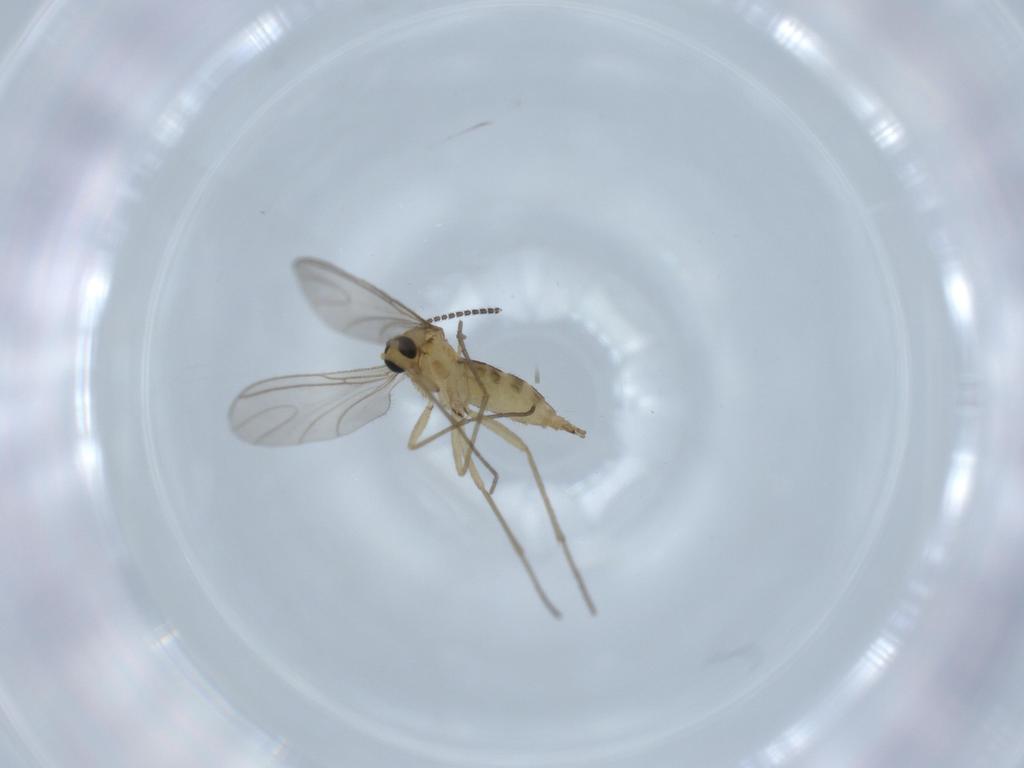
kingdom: Animalia
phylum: Arthropoda
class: Insecta
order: Diptera
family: Sciaridae
